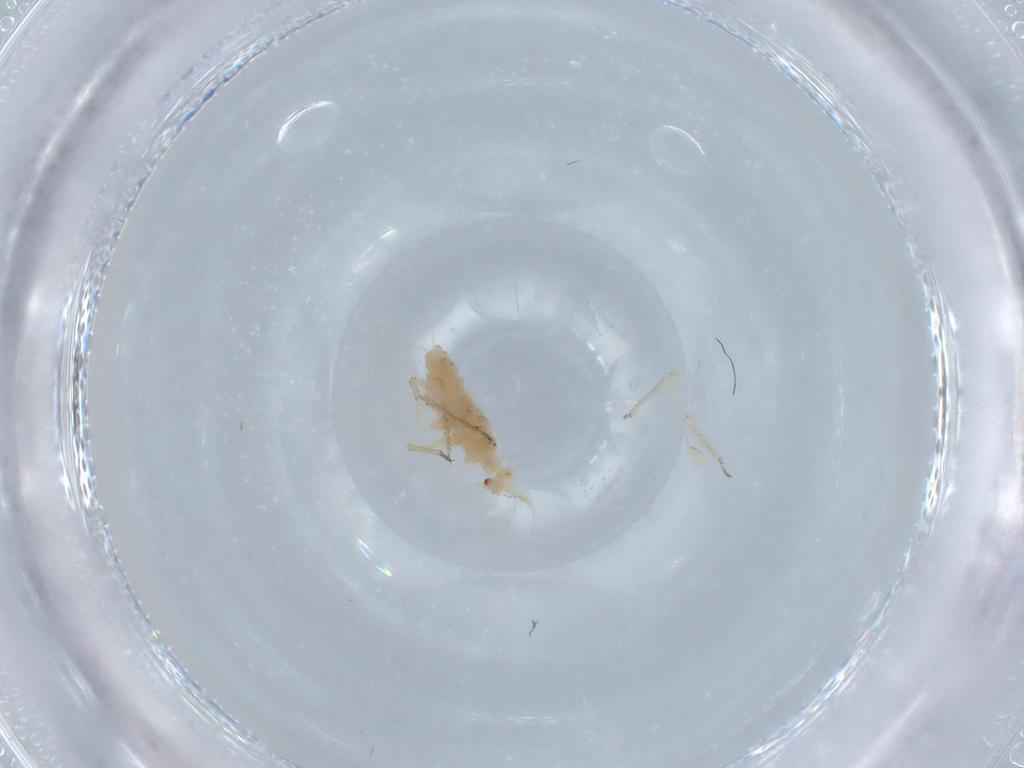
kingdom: Animalia
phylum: Arthropoda
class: Insecta
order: Hemiptera
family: Aphididae
